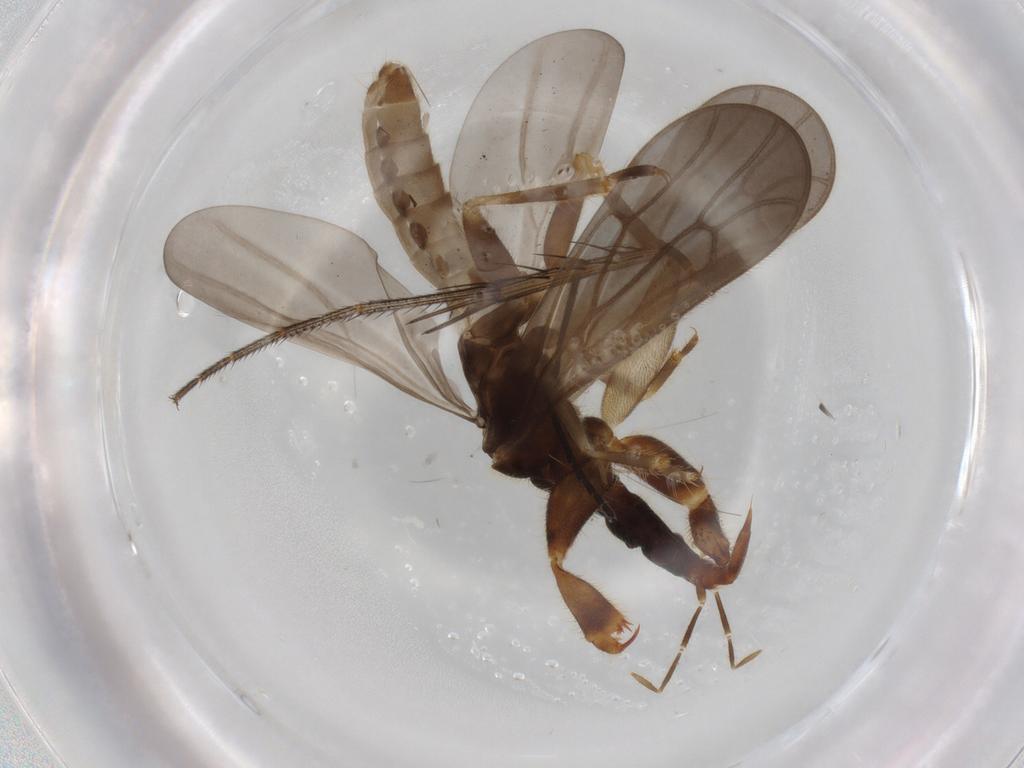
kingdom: Animalia
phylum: Arthropoda
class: Insecta
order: Hemiptera
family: Enicocephalidae
